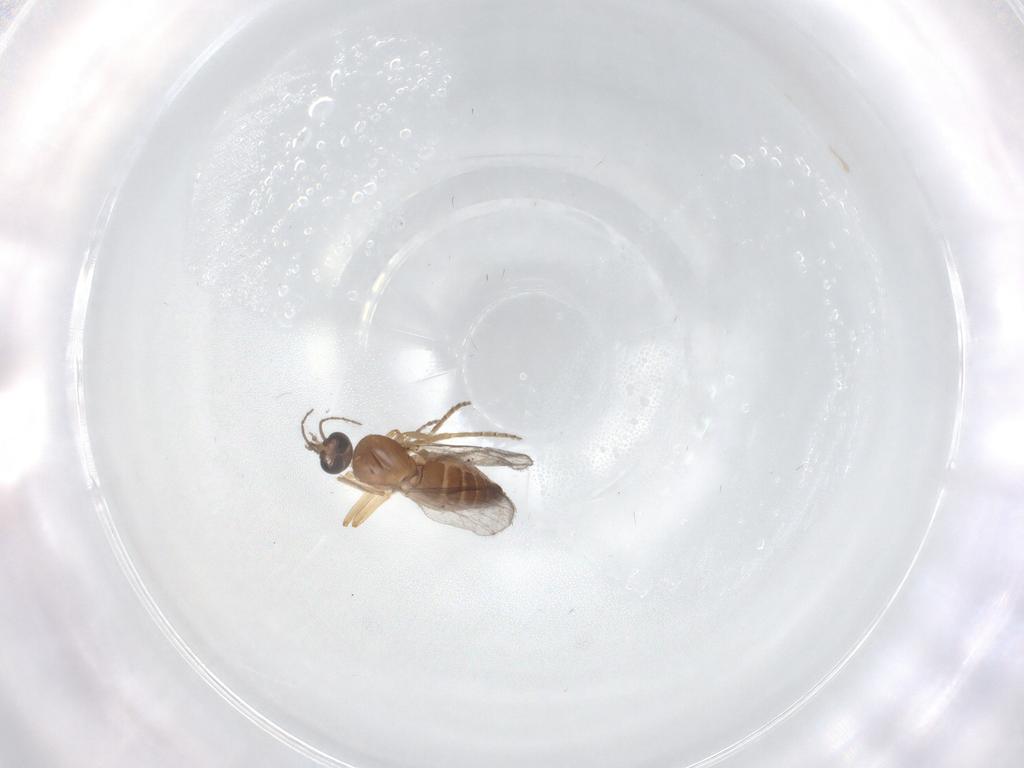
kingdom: Animalia
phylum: Arthropoda
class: Insecta
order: Diptera
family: Ceratopogonidae
